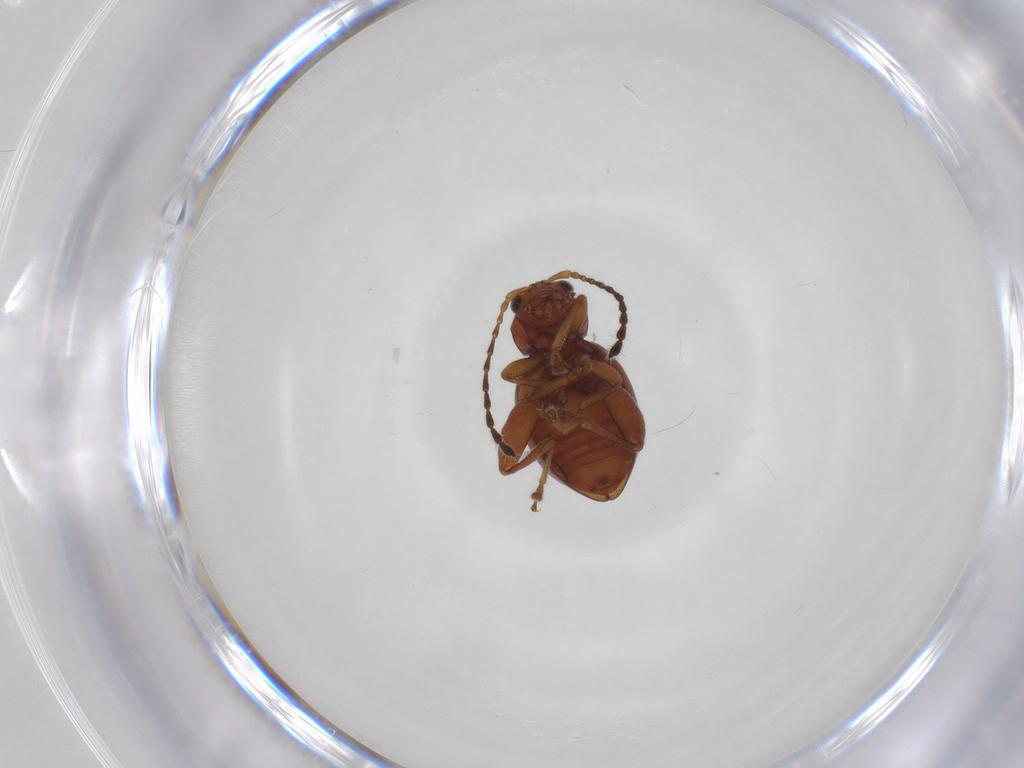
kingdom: Animalia
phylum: Arthropoda
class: Insecta
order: Coleoptera
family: Chrysomelidae
